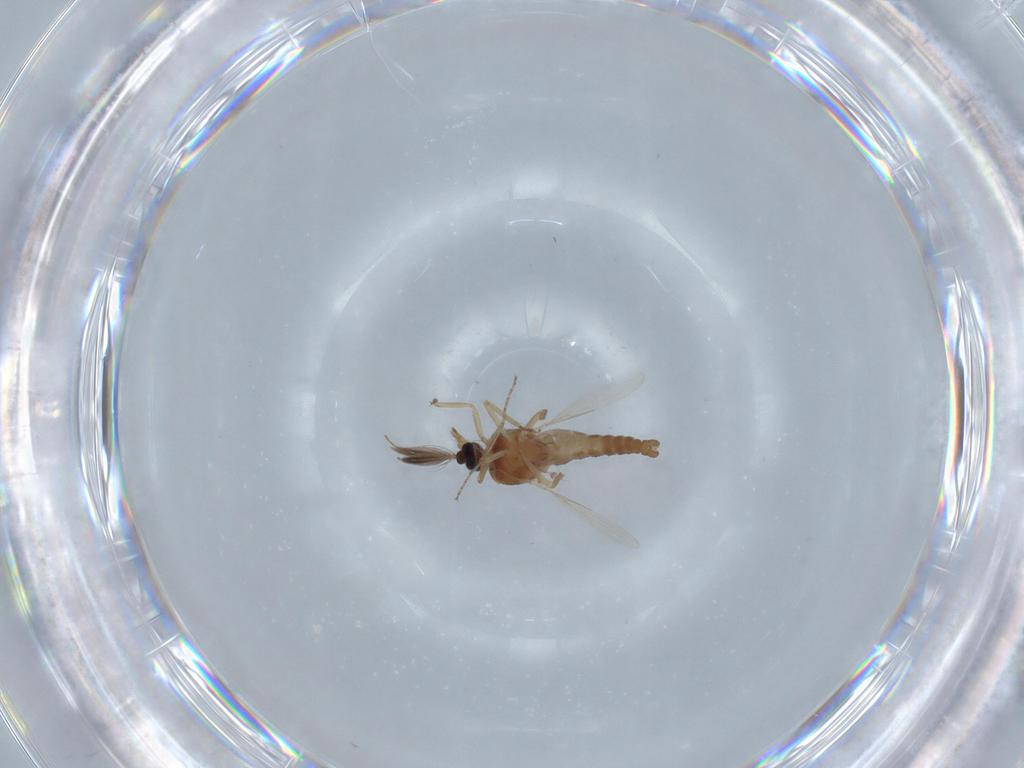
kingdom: Animalia
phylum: Arthropoda
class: Insecta
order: Diptera
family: Ceratopogonidae
